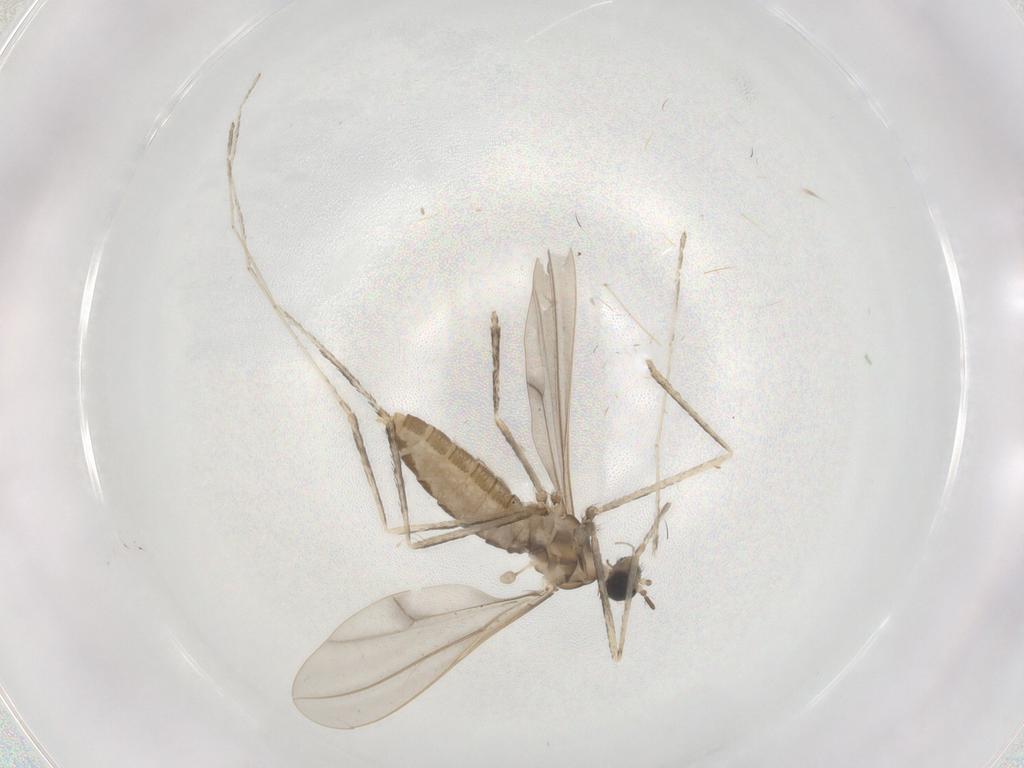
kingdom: Animalia
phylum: Arthropoda
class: Insecta
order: Diptera
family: Cecidomyiidae
